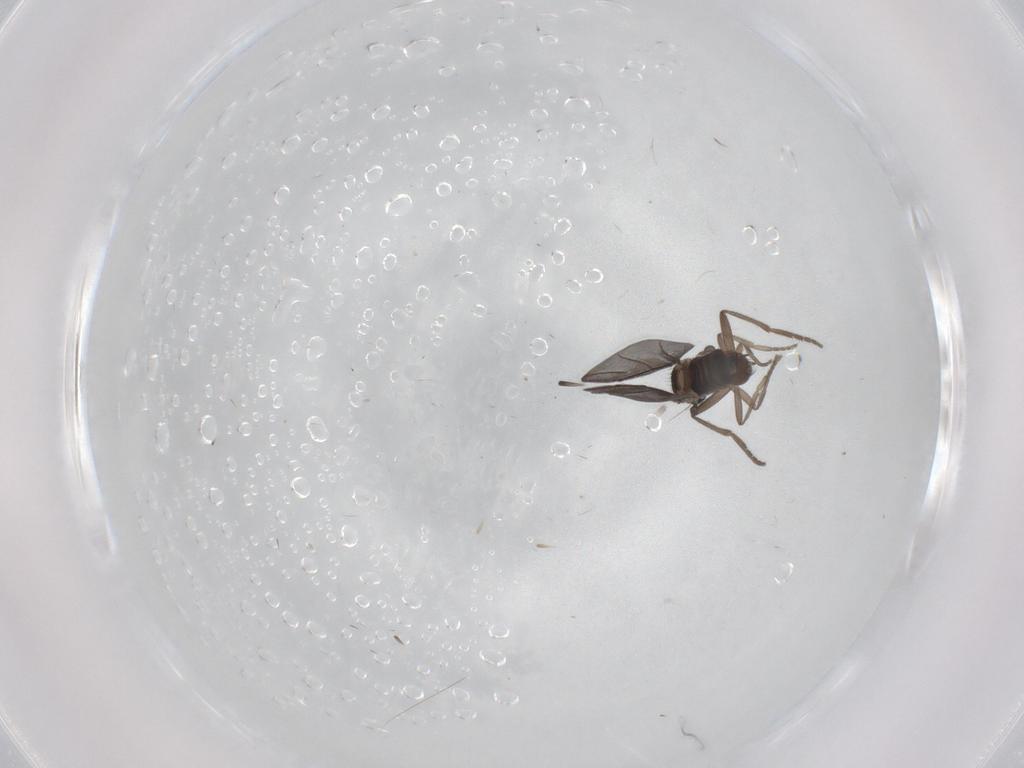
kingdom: Animalia
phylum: Arthropoda
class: Insecta
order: Diptera
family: Phoridae
